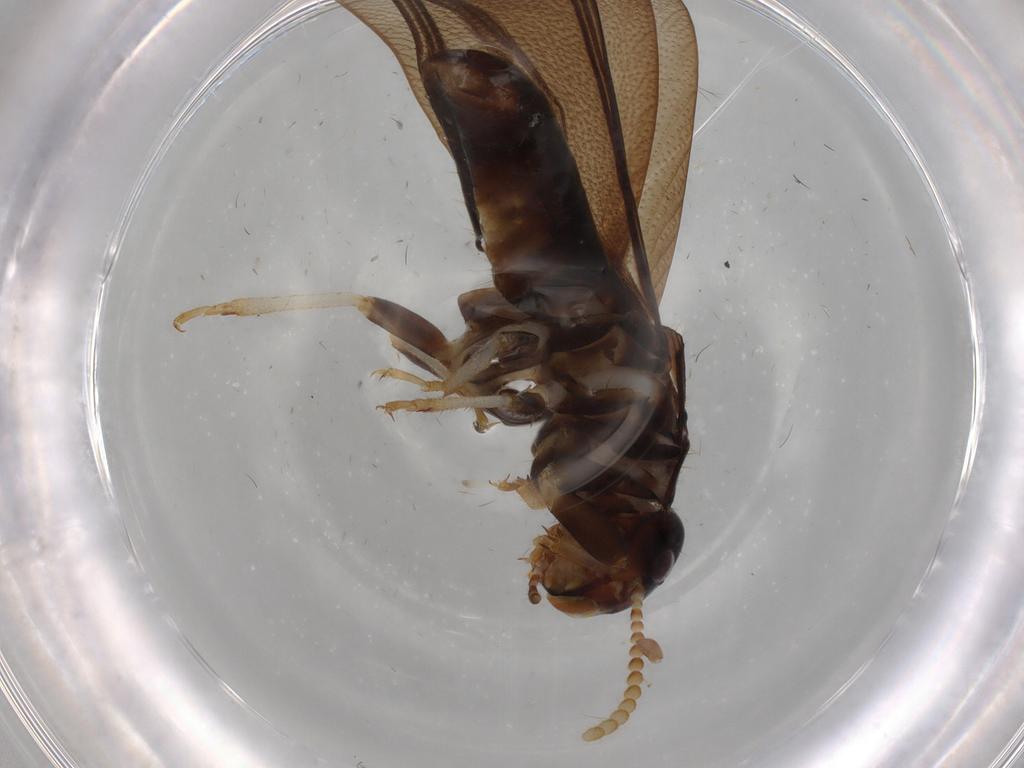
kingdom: Animalia
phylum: Arthropoda
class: Insecta
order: Blattodea
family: Kalotermitidae
